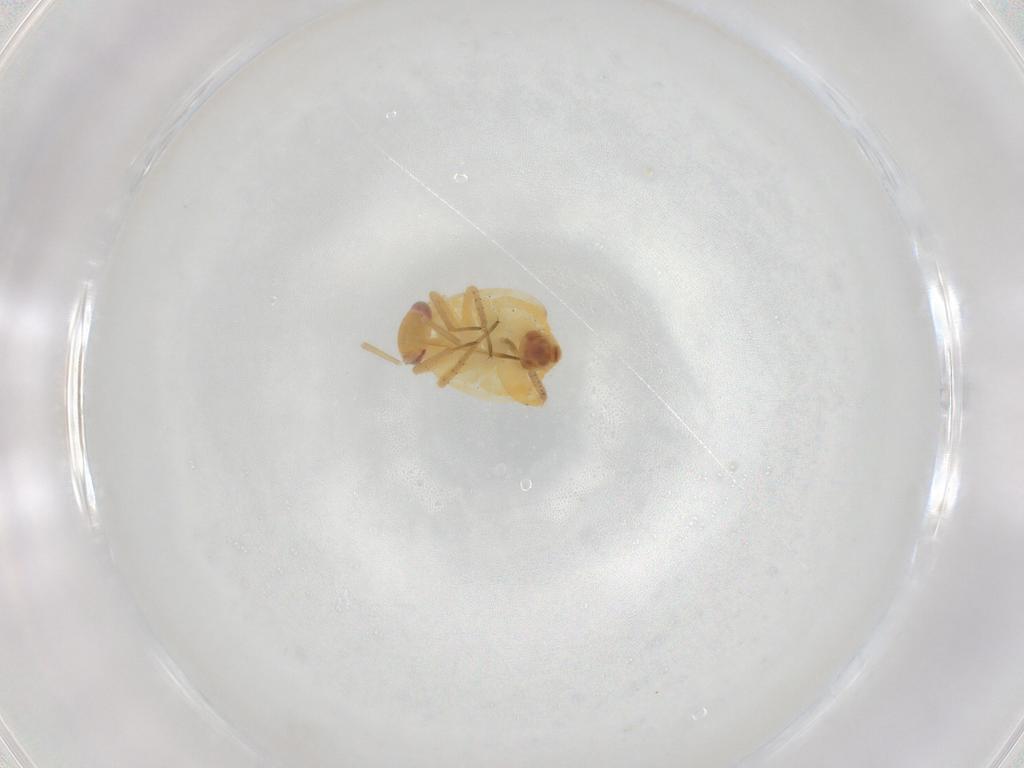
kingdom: Animalia
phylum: Arthropoda
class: Insecta
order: Hemiptera
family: Miridae
